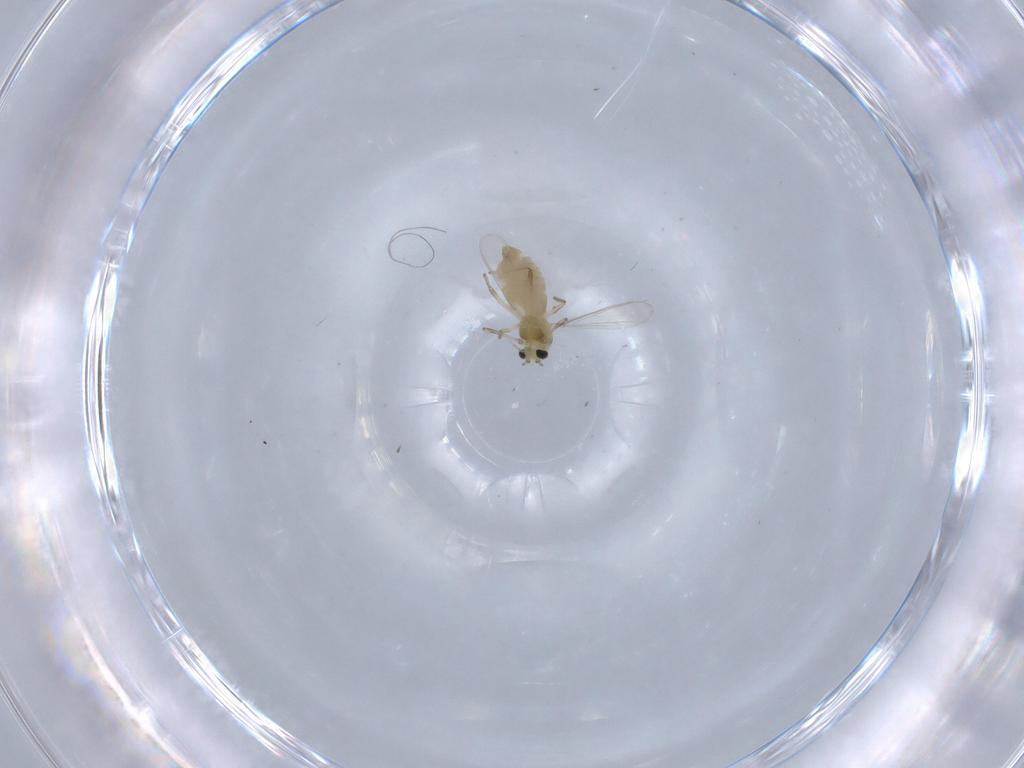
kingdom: Animalia
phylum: Arthropoda
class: Insecta
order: Diptera
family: Chironomidae
